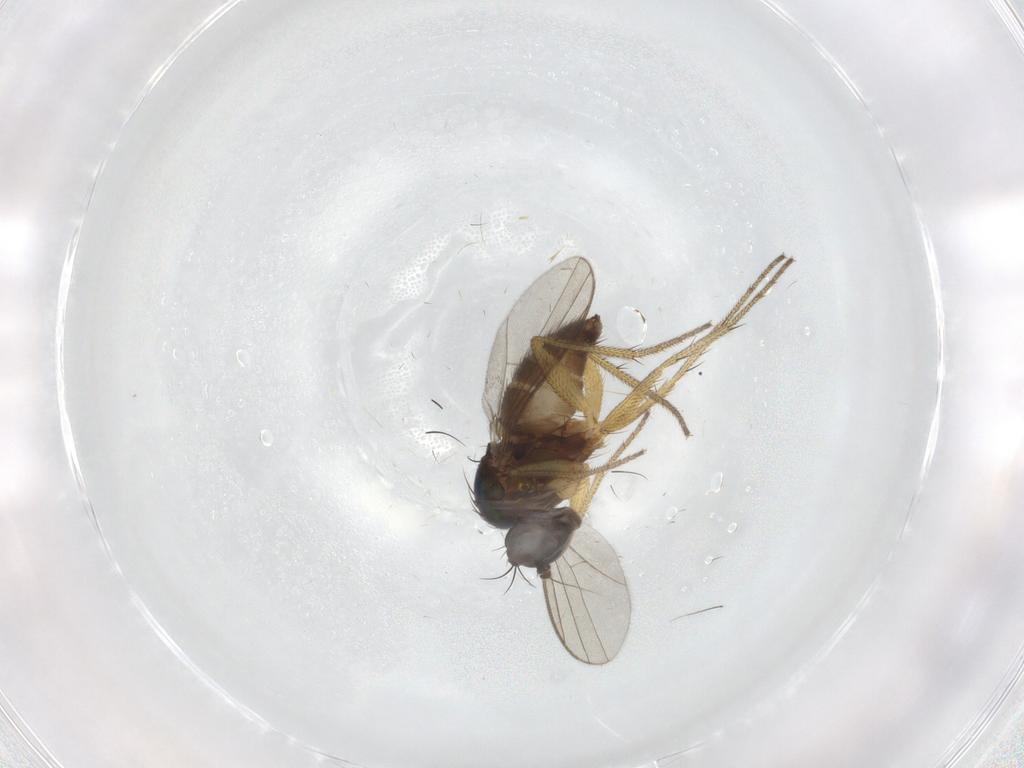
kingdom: Animalia
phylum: Arthropoda
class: Insecta
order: Diptera
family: Dolichopodidae
